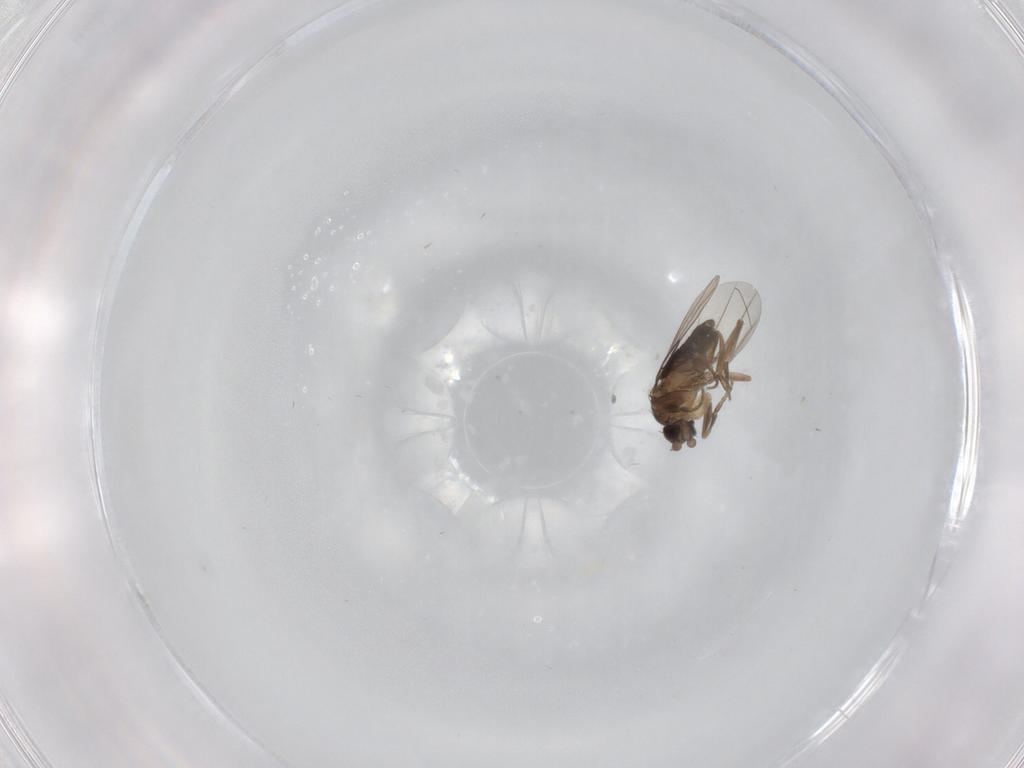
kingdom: Animalia
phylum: Arthropoda
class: Insecta
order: Diptera
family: Phoridae
